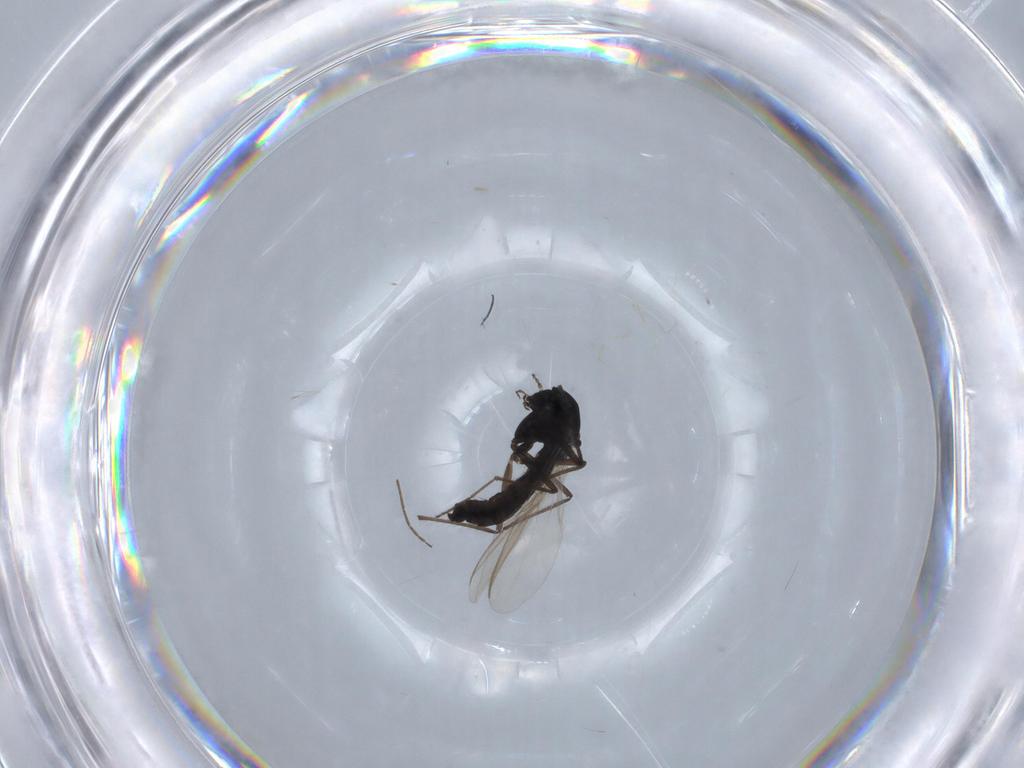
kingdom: Animalia
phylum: Arthropoda
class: Insecta
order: Diptera
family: Chironomidae
